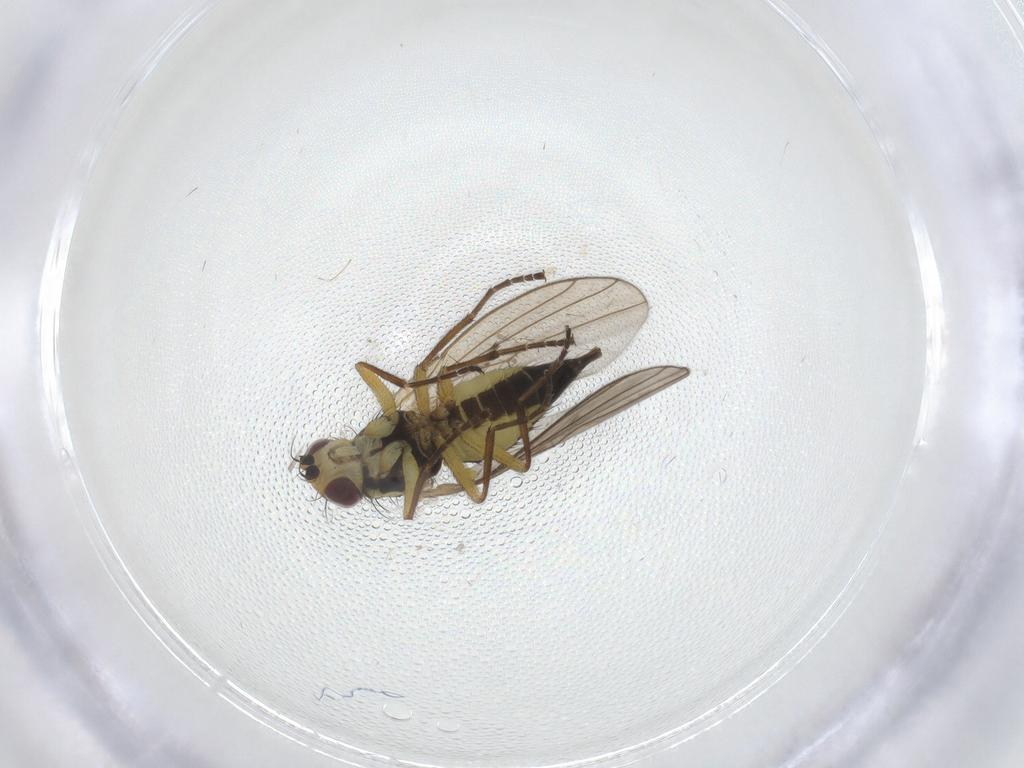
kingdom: Animalia
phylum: Arthropoda
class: Insecta
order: Diptera
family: Agromyzidae
